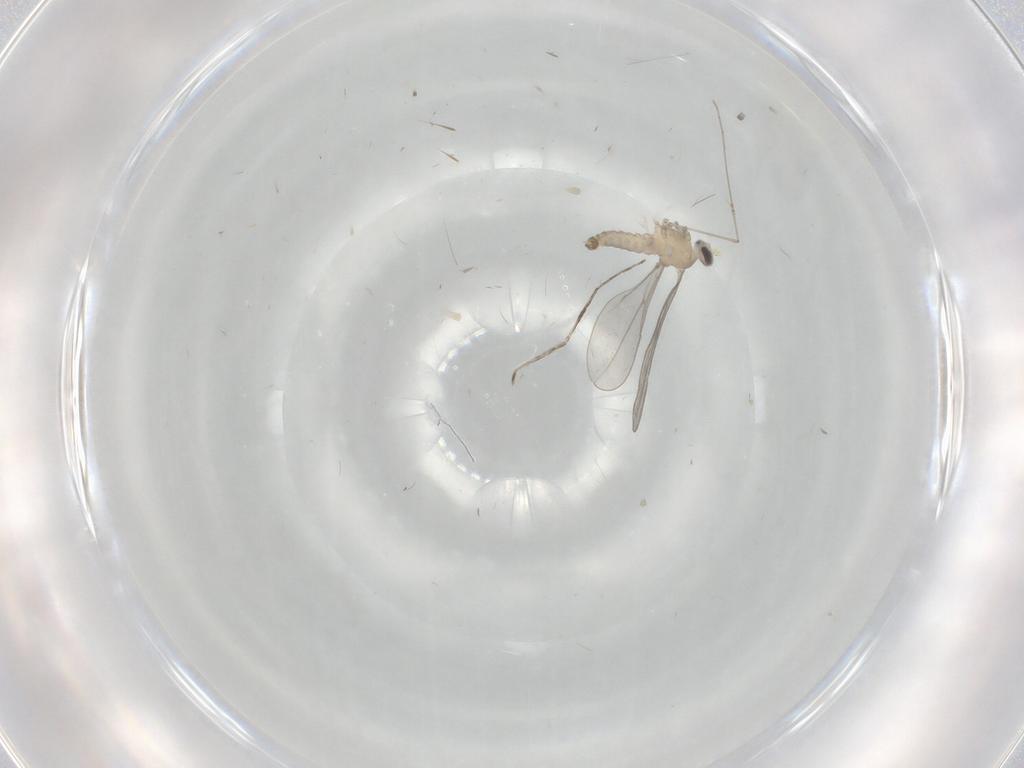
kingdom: Animalia
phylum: Arthropoda
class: Insecta
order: Diptera
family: Cecidomyiidae
